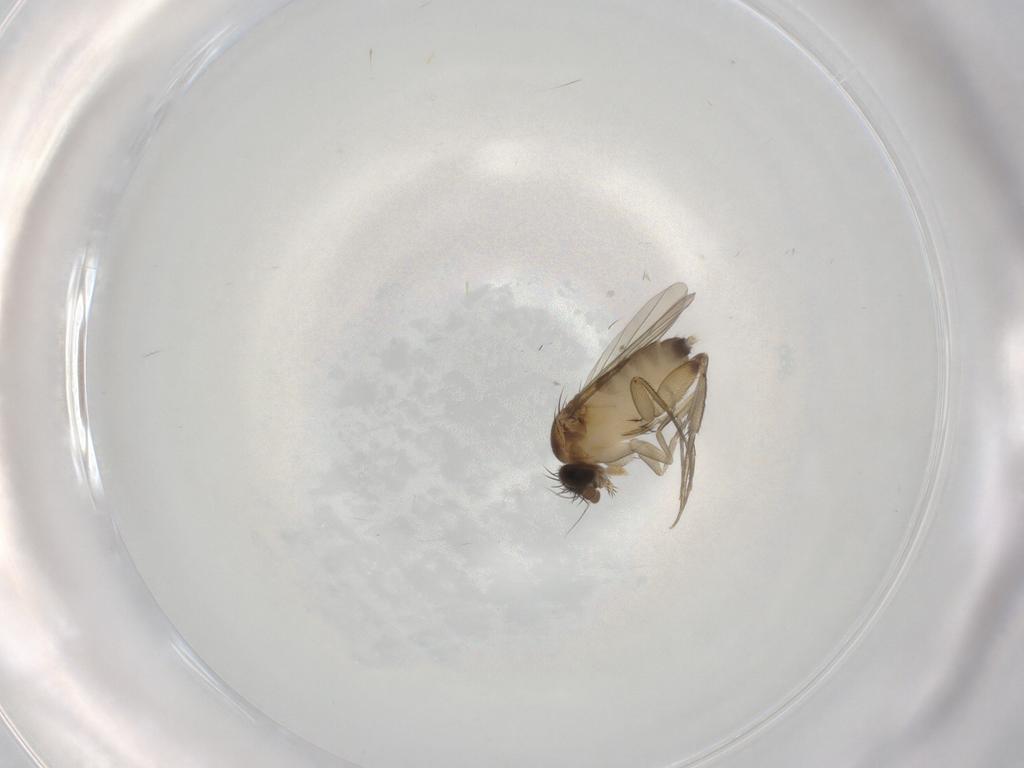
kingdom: Animalia
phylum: Arthropoda
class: Insecta
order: Diptera
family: Phoridae
